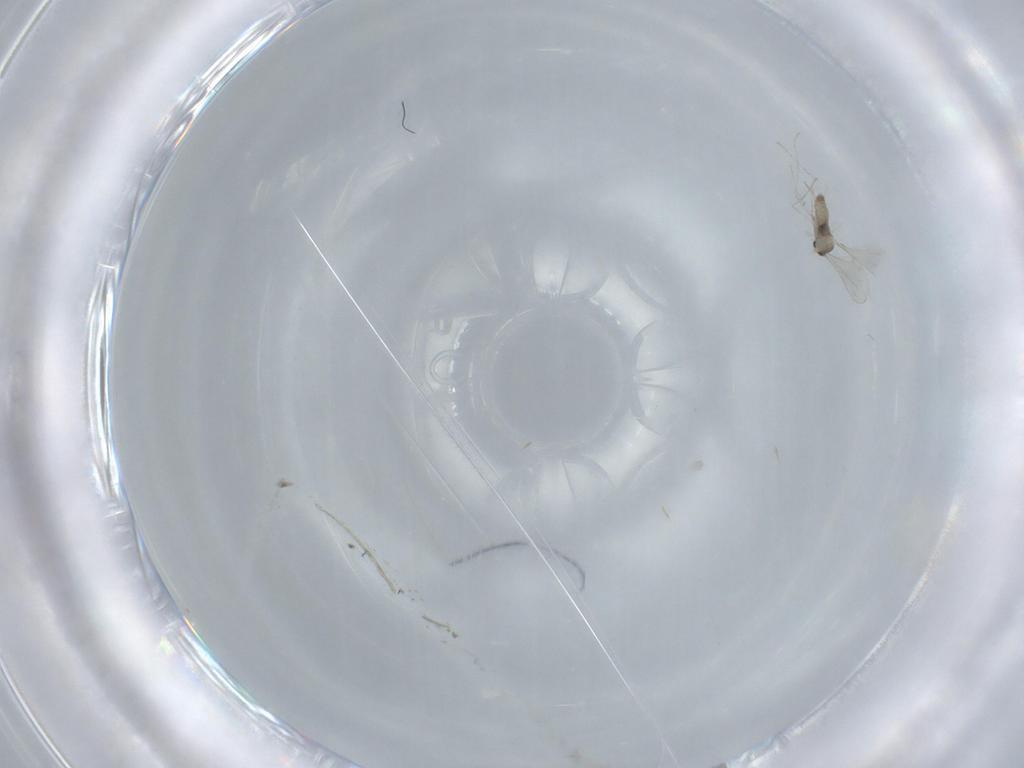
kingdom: Animalia
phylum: Arthropoda
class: Insecta
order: Diptera
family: Cecidomyiidae
